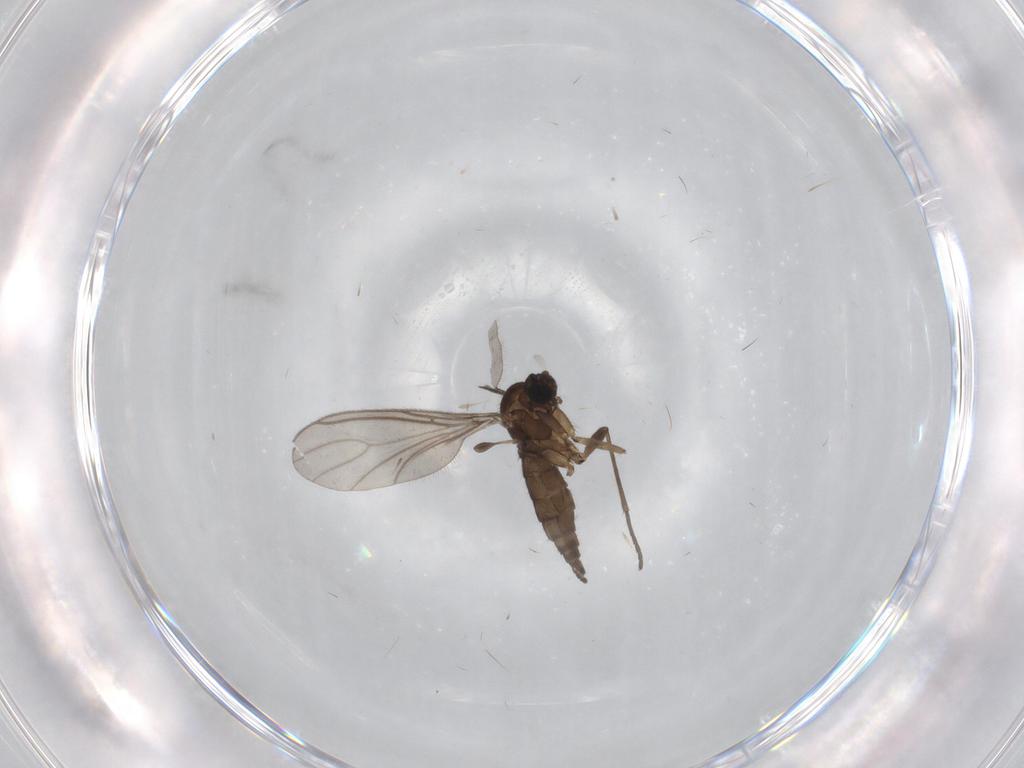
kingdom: Animalia
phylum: Arthropoda
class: Insecta
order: Diptera
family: Sciaridae
